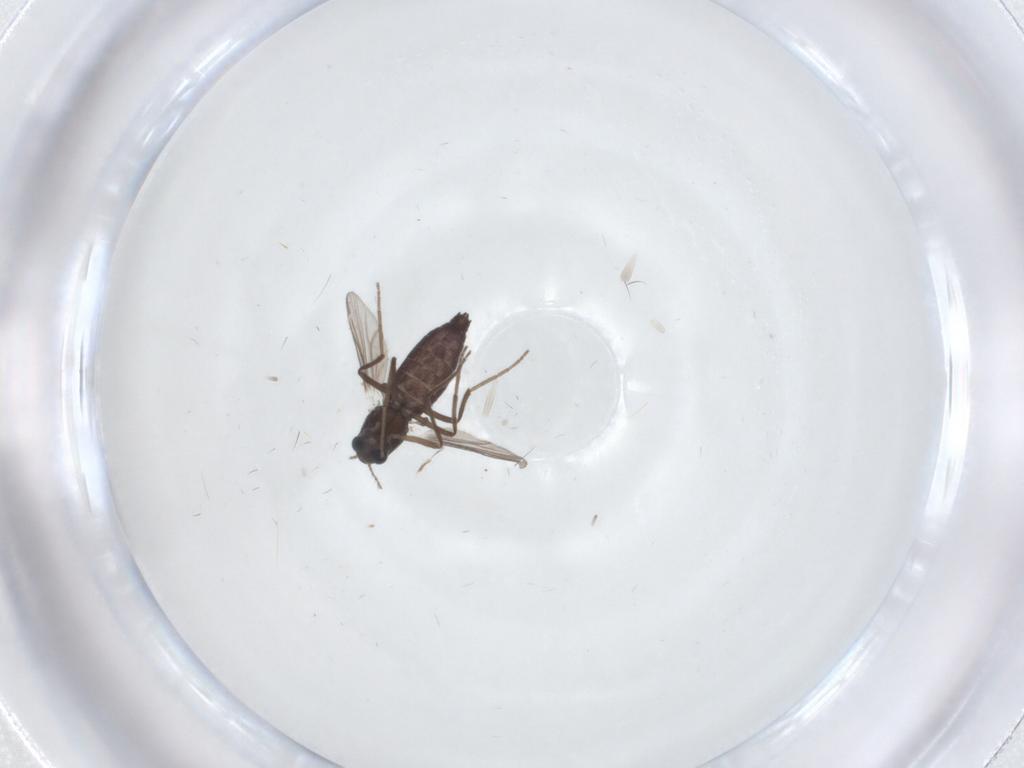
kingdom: Animalia
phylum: Arthropoda
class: Insecta
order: Diptera
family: Chironomidae
